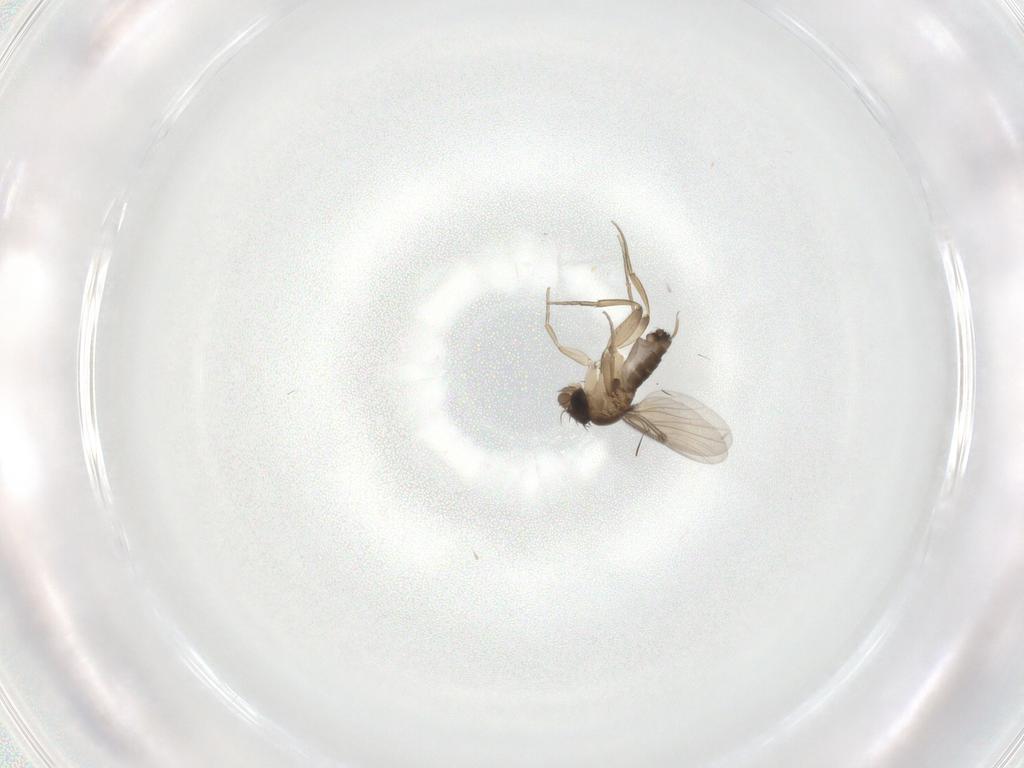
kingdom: Animalia
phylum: Arthropoda
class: Insecta
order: Diptera
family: Phoridae
